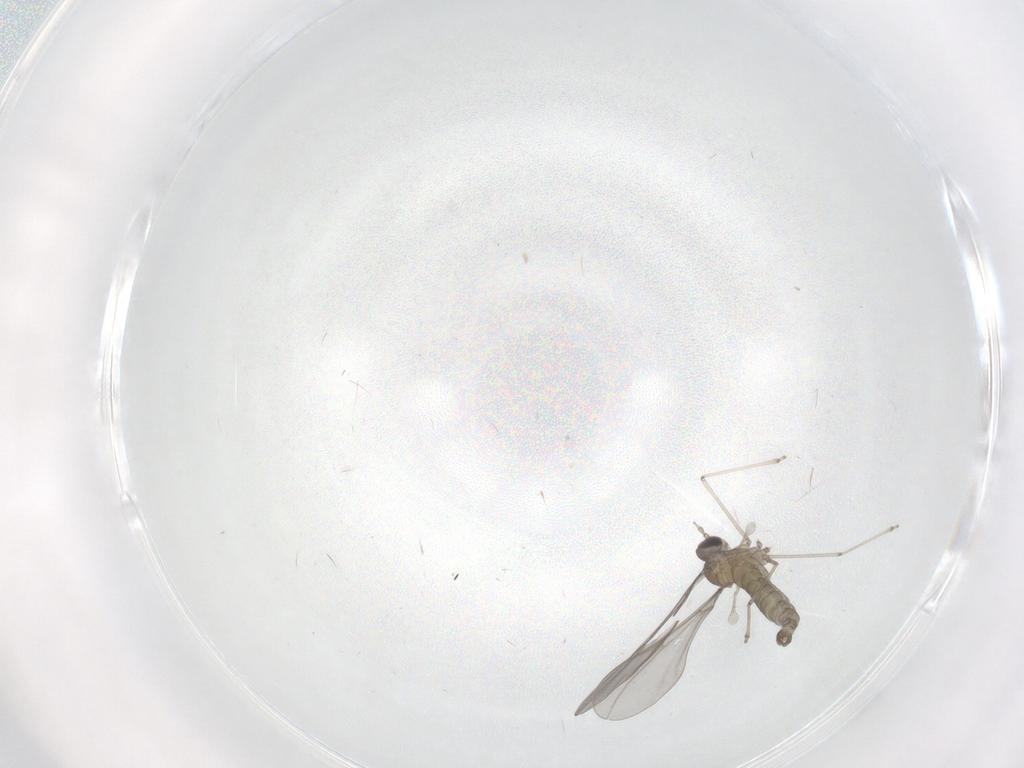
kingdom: Animalia
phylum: Arthropoda
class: Insecta
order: Diptera
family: Cecidomyiidae
